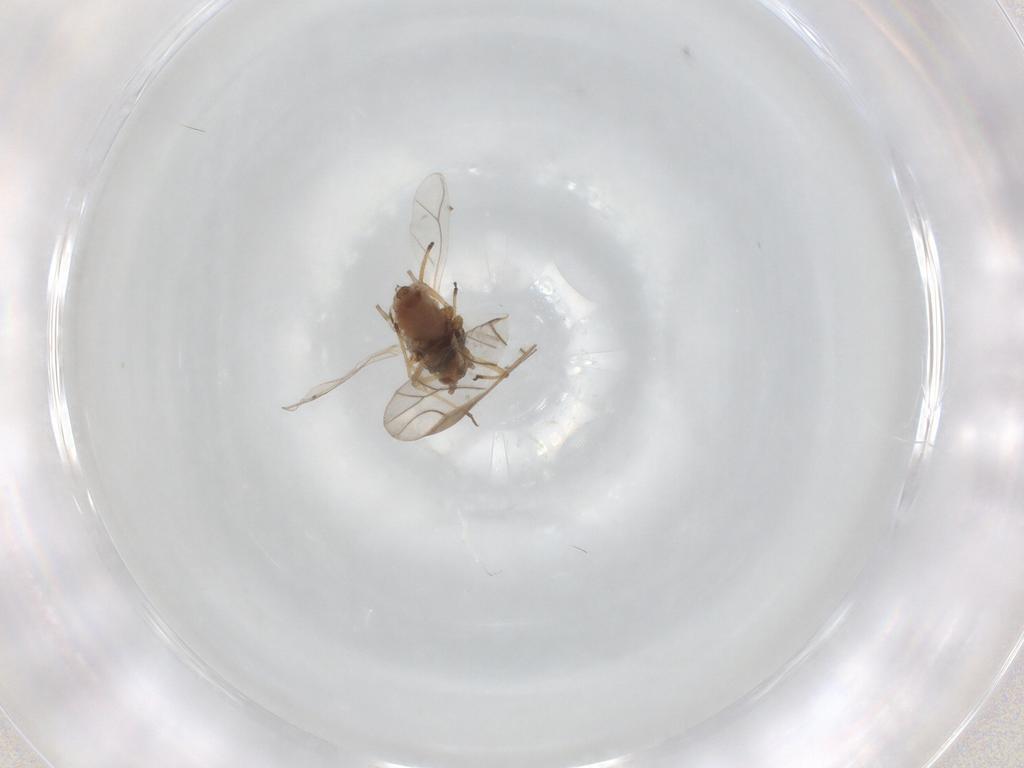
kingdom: Animalia
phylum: Arthropoda
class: Insecta
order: Hemiptera
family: Aphididae
